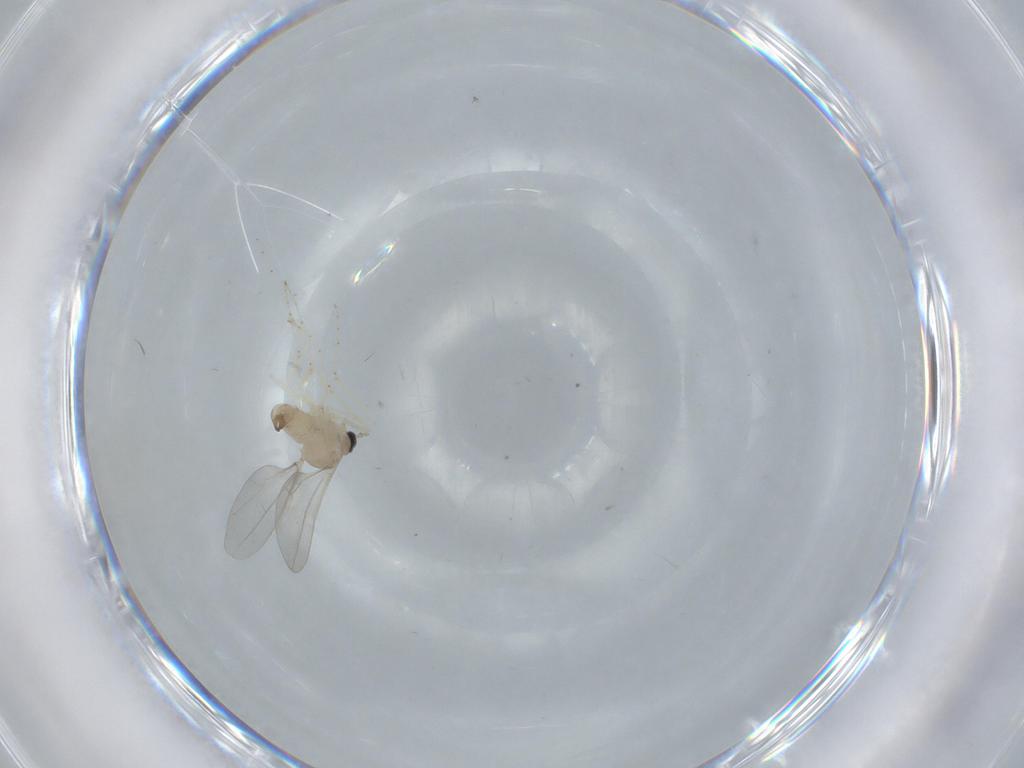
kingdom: Animalia
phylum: Arthropoda
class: Insecta
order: Diptera
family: Cecidomyiidae
